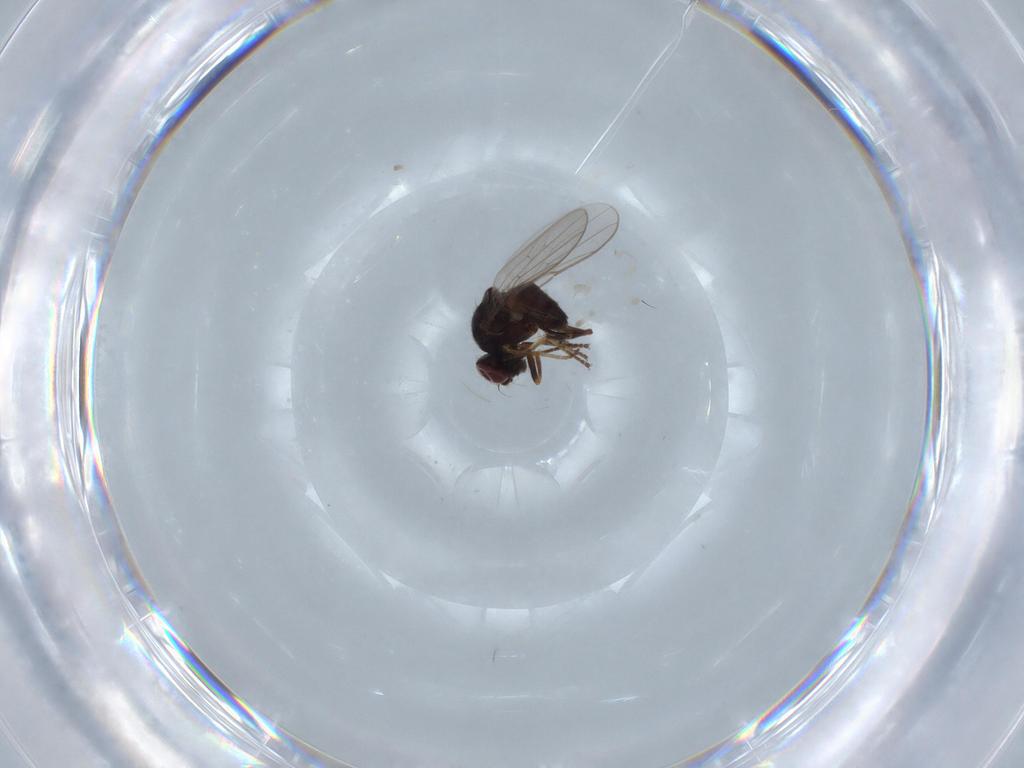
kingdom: Animalia
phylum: Arthropoda
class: Insecta
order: Diptera
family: Chloropidae
